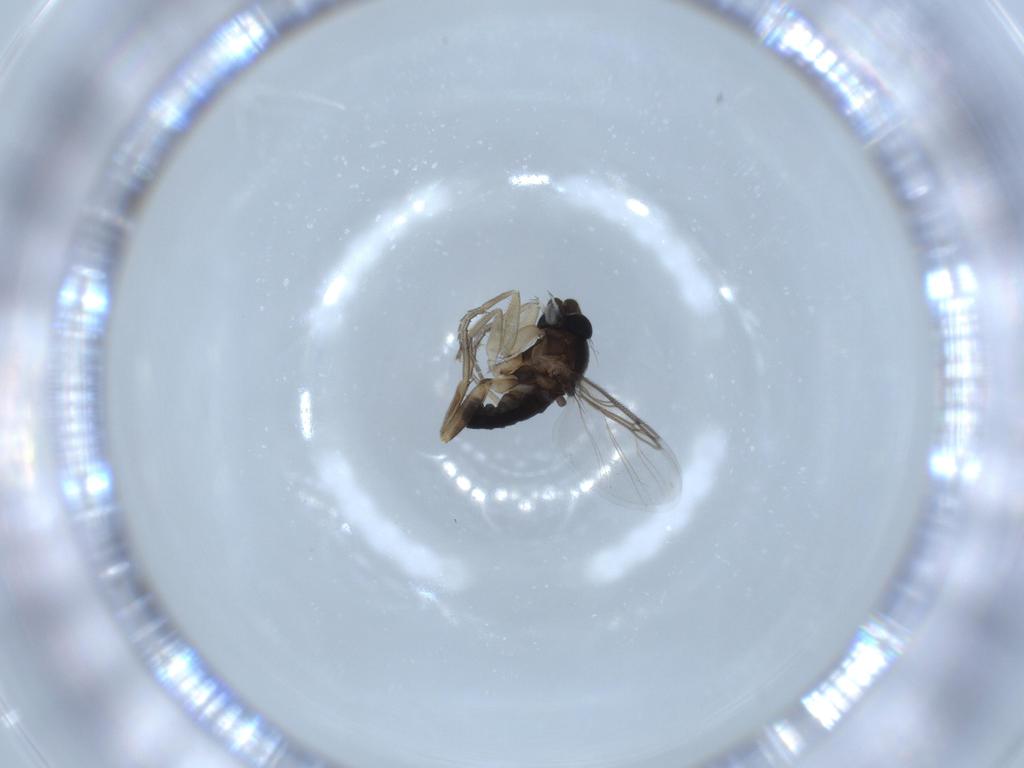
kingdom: Animalia
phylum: Arthropoda
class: Insecta
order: Diptera
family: Phoridae
